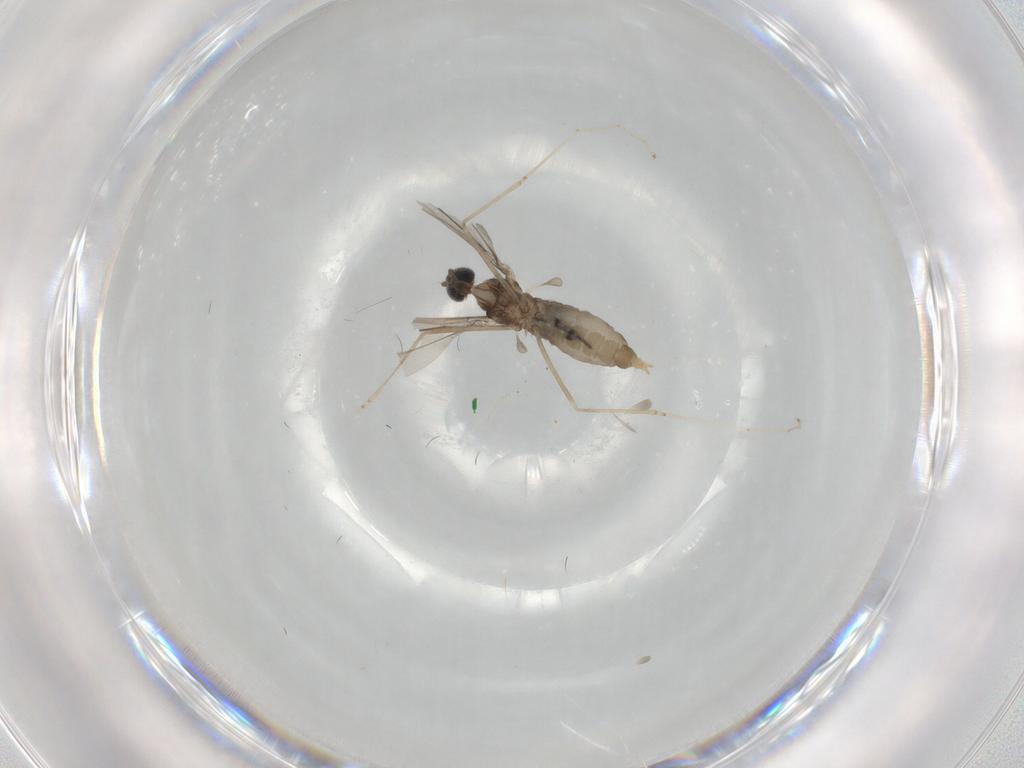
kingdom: Animalia
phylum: Arthropoda
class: Insecta
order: Diptera
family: Cecidomyiidae
